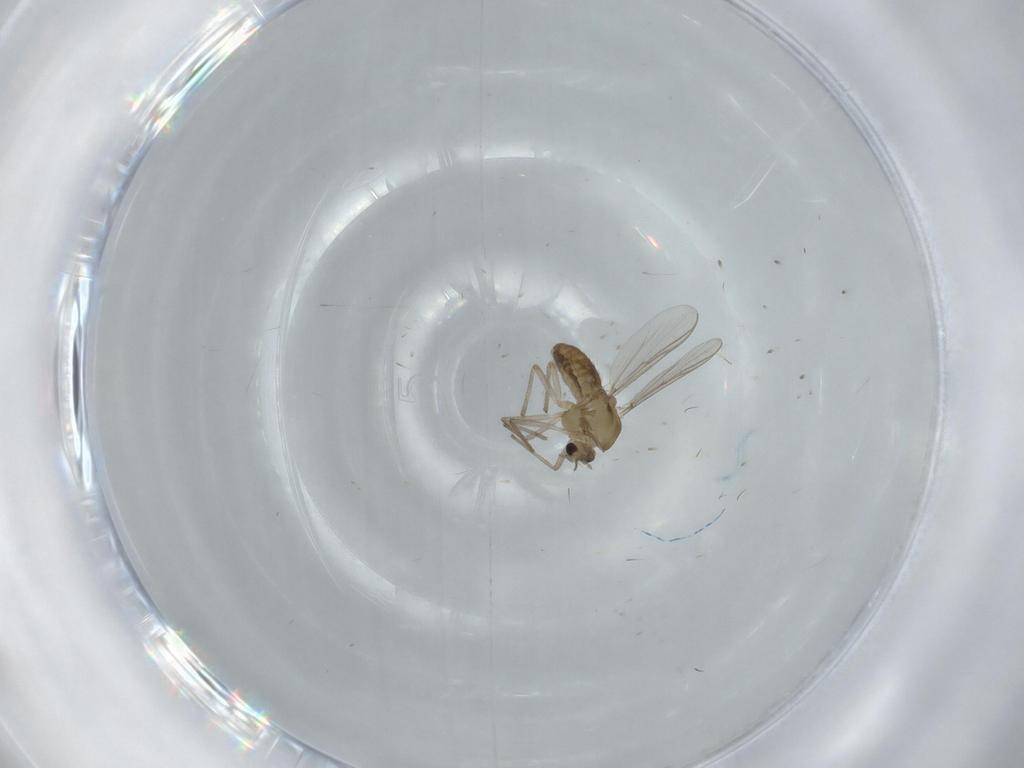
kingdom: Animalia
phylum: Arthropoda
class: Insecta
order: Diptera
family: Chironomidae
